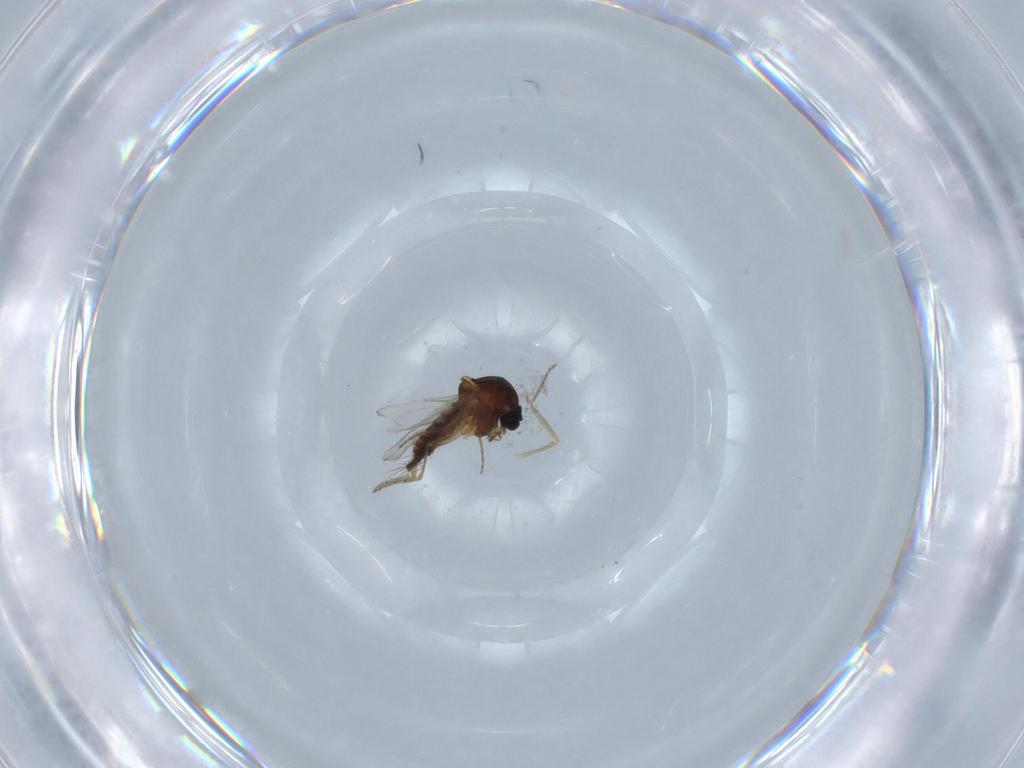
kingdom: Animalia
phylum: Arthropoda
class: Insecta
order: Diptera
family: Ceratopogonidae
